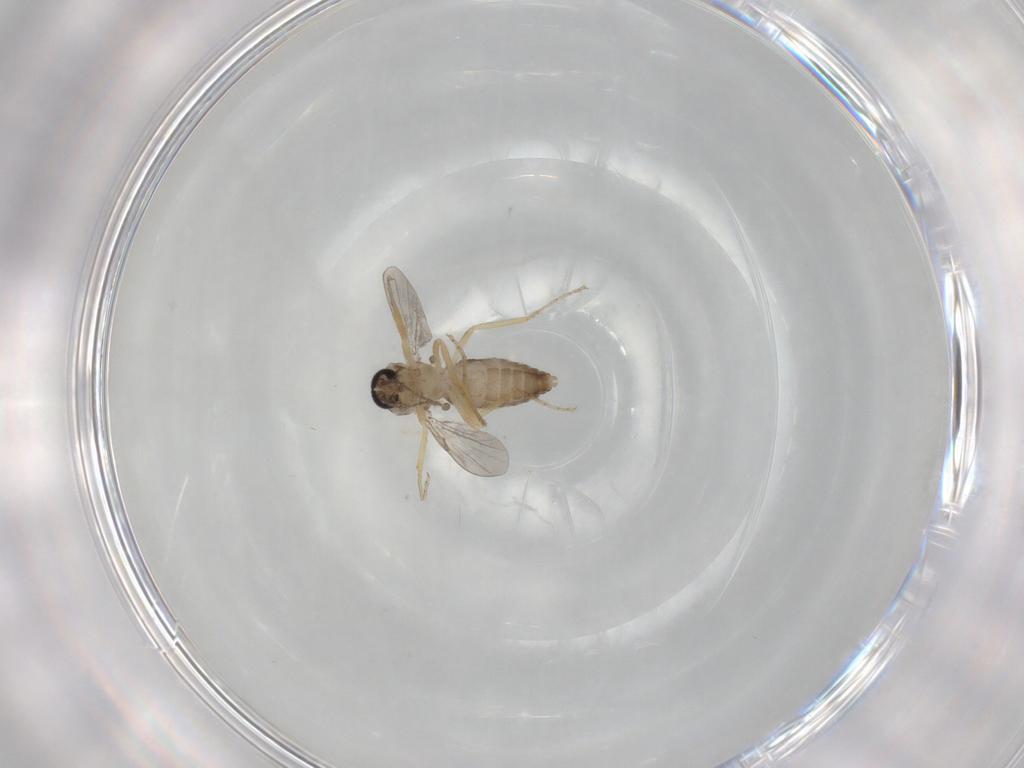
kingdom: Animalia
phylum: Arthropoda
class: Insecta
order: Diptera
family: Ceratopogonidae
